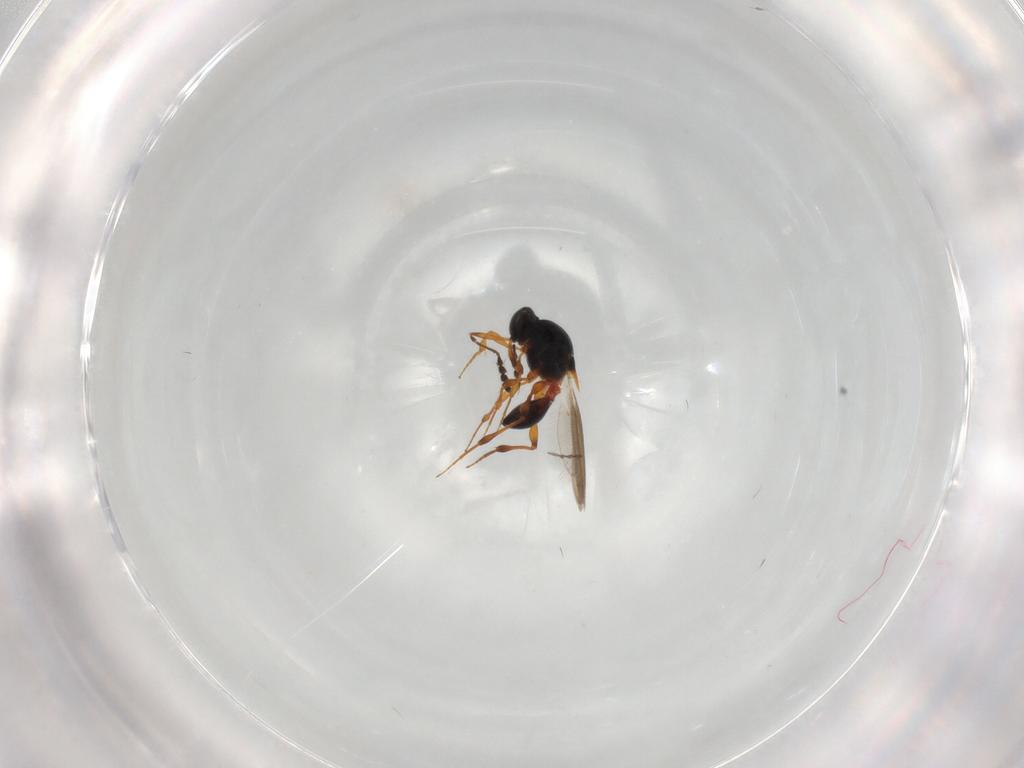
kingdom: Animalia
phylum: Arthropoda
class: Insecta
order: Hymenoptera
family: Platygastridae
